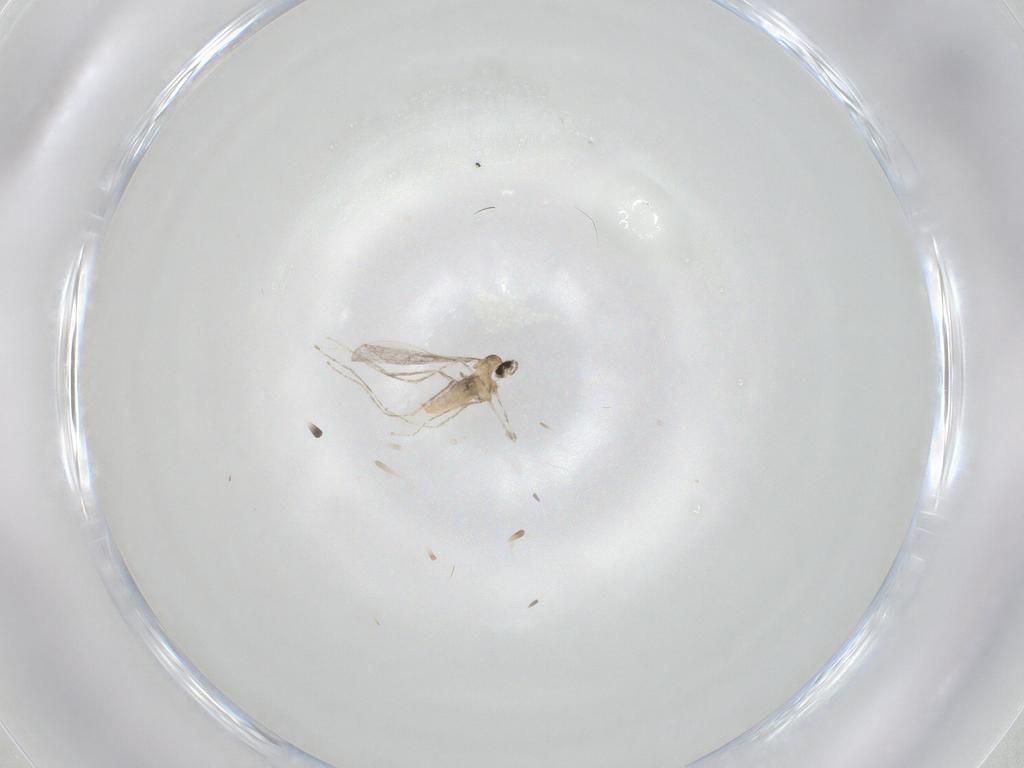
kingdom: Animalia
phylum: Arthropoda
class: Insecta
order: Diptera
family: Cecidomyiidae
